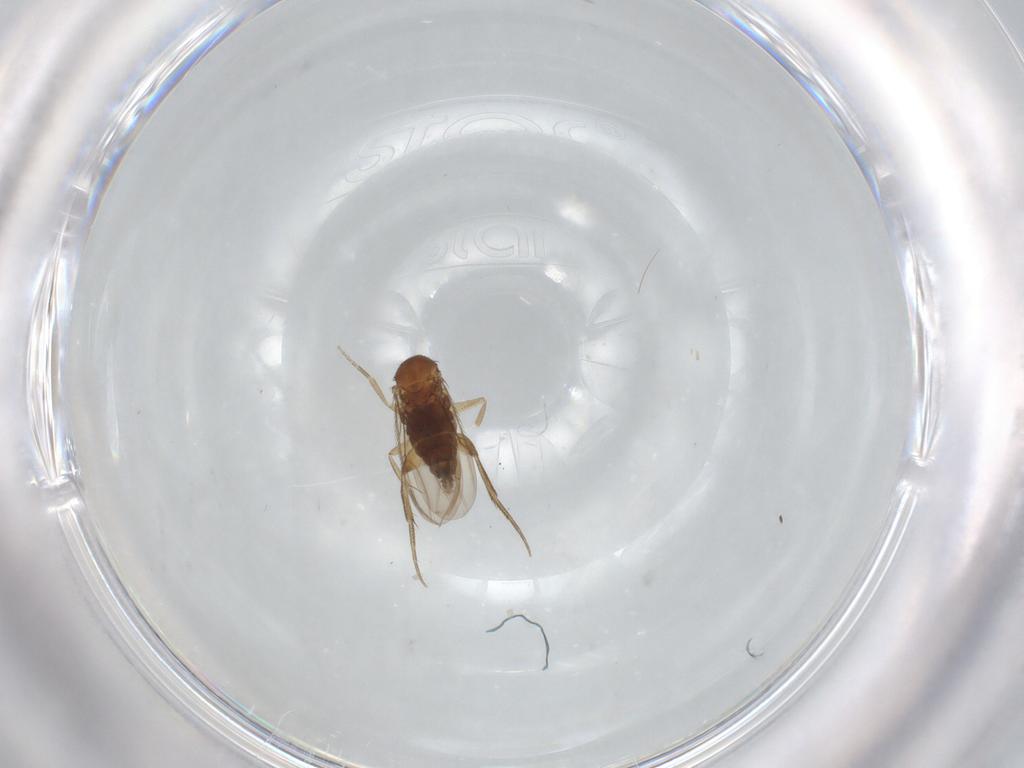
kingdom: Animalia
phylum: Arthropoda
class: Insecta
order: Diptera
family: Phoridae
